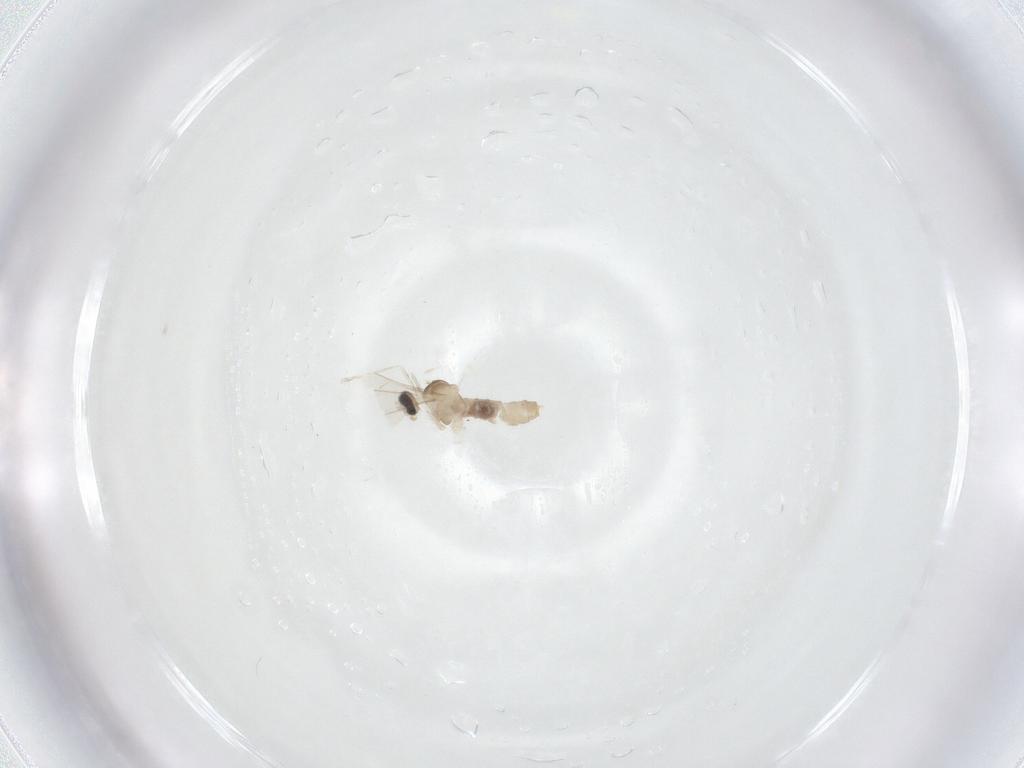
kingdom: Animalia
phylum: Arthropoda
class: Insecta
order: Diptera
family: Cecidomyiidae
